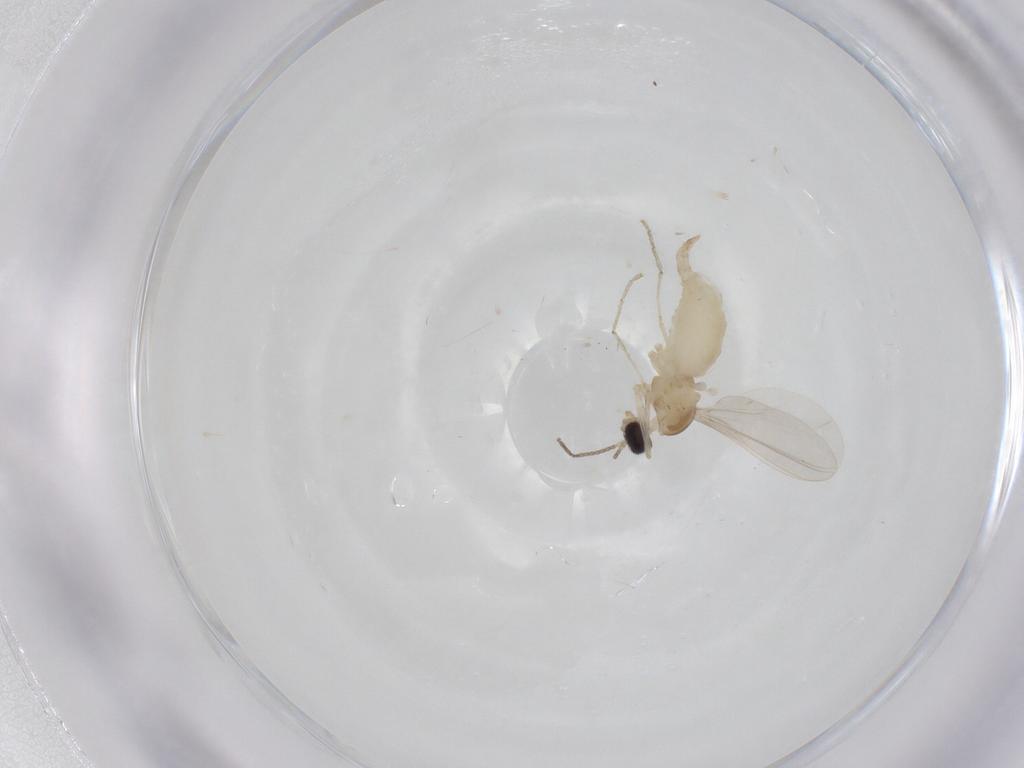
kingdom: Animalia
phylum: Arthropoda
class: Insecta
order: Diptera
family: Cecidomyiidae
